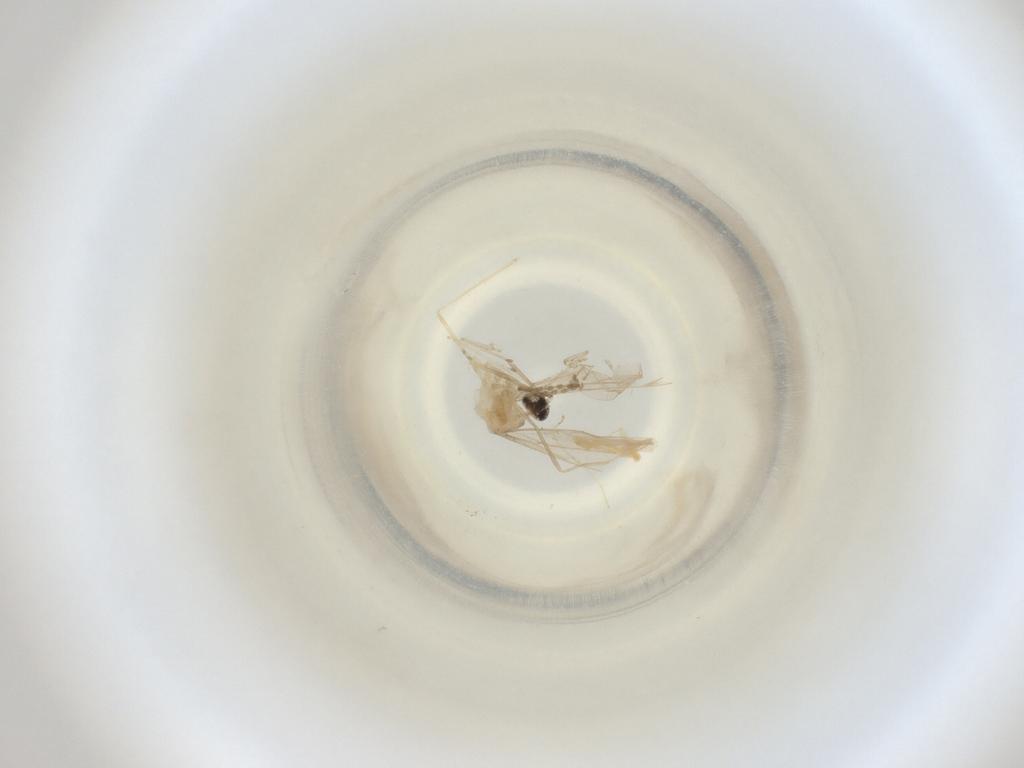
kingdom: Animalia
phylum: Arthropoda
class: Insecta
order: Diptera
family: Cecidomyiidae
